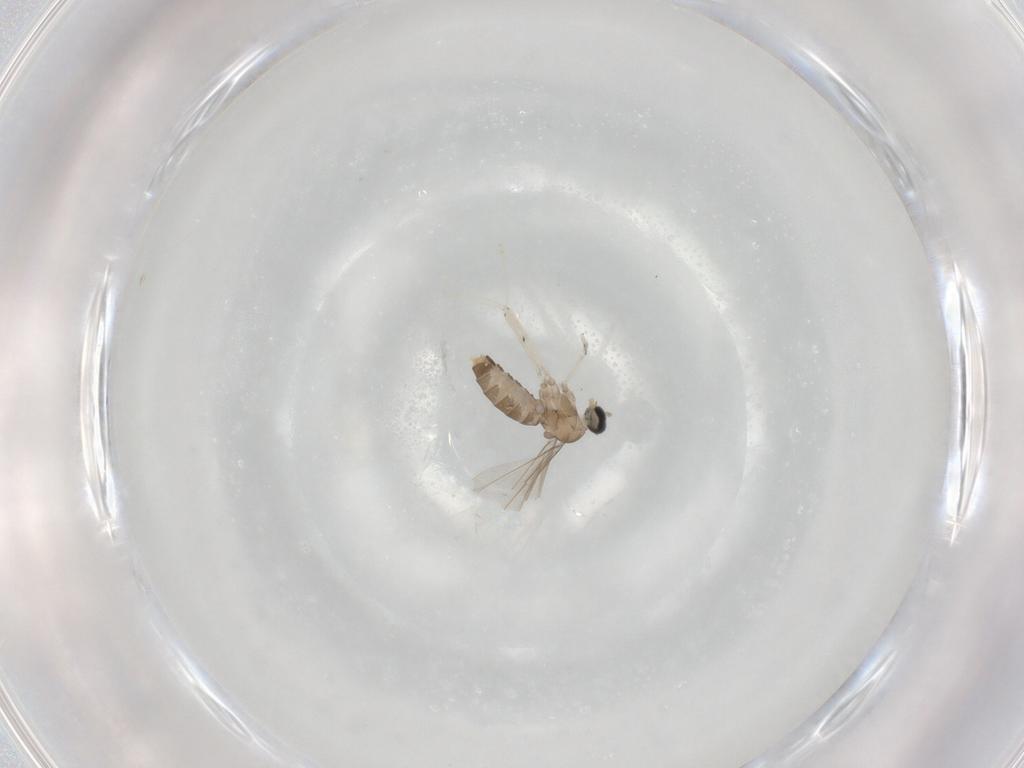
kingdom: Animalia
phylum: Arthropoda
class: Insecta
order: Diptera
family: Cecidomyiidae
